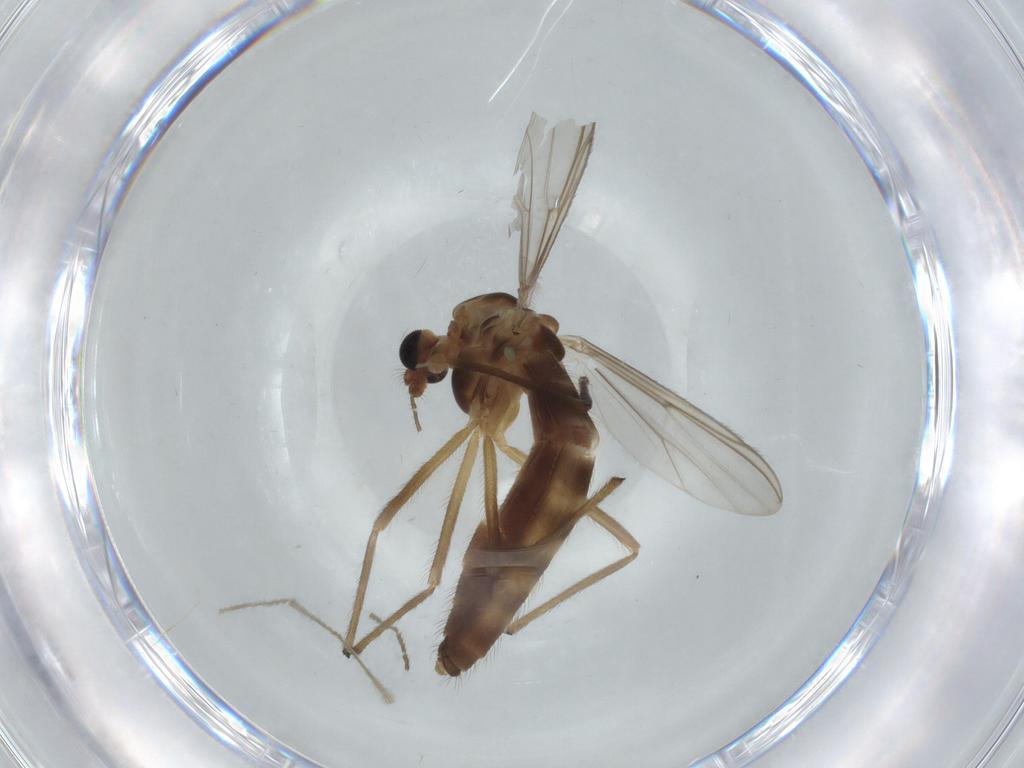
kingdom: Animalia
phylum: Arthropoda
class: Insecta
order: Diptera
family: Chironomidae
